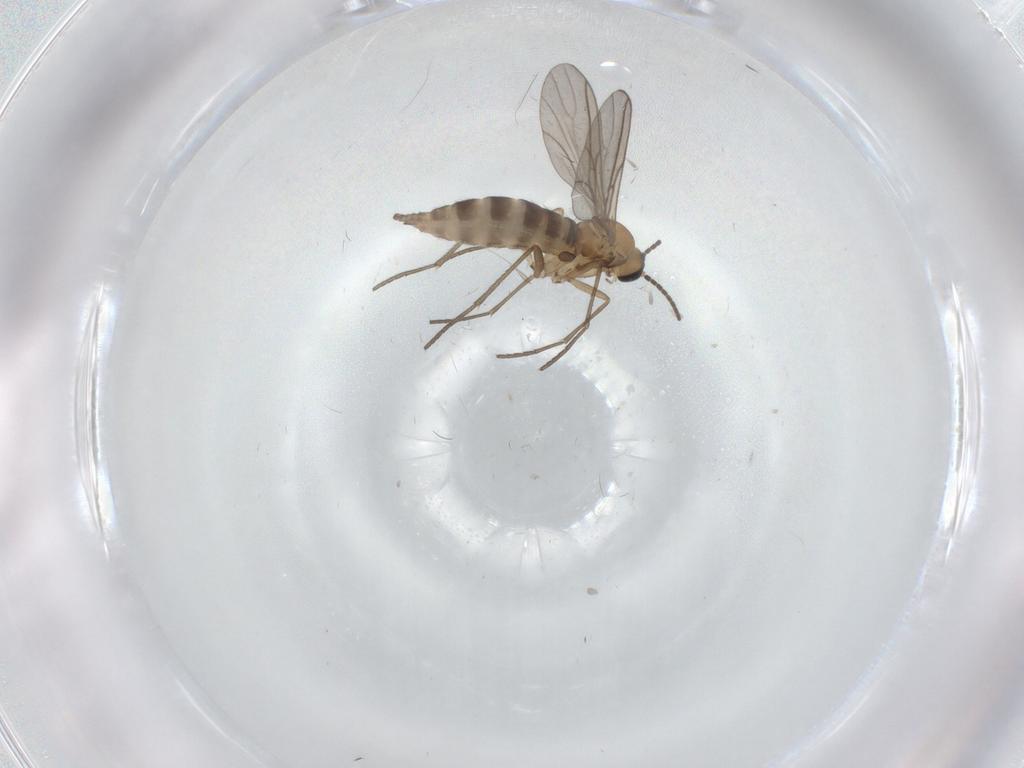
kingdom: Animalia
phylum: Arthropoda
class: Insecta
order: Diptera
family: Sciaridae
